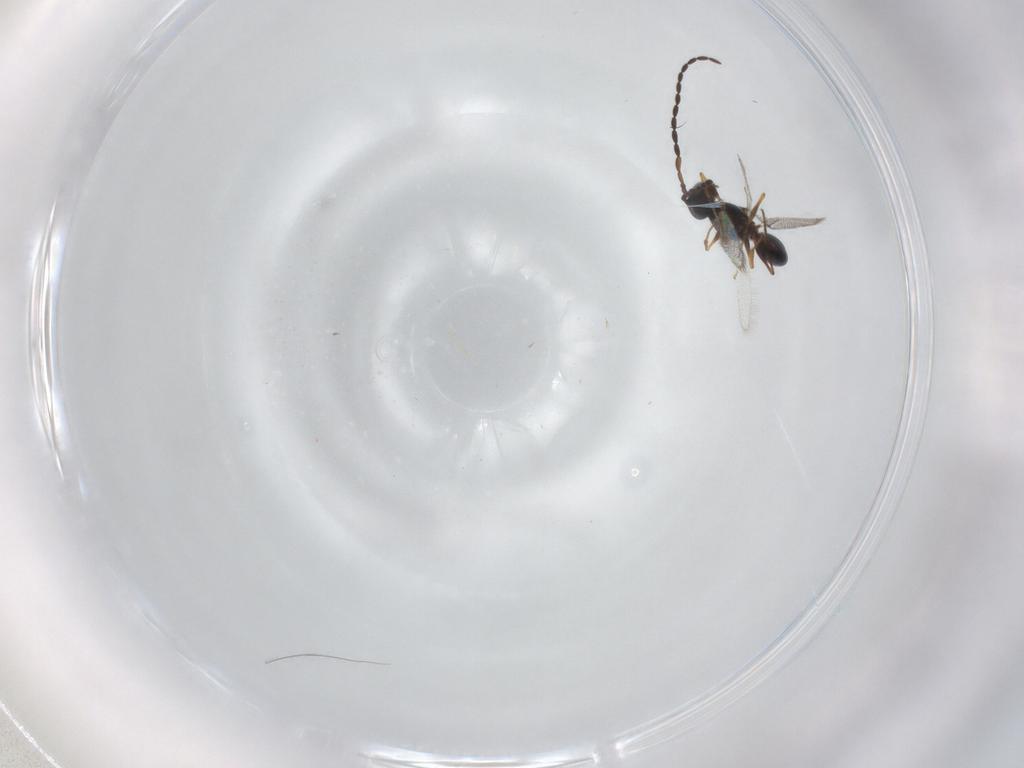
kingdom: Animalia
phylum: Arthropoda
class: Insecta
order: Hymenoptera
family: Figitidae
